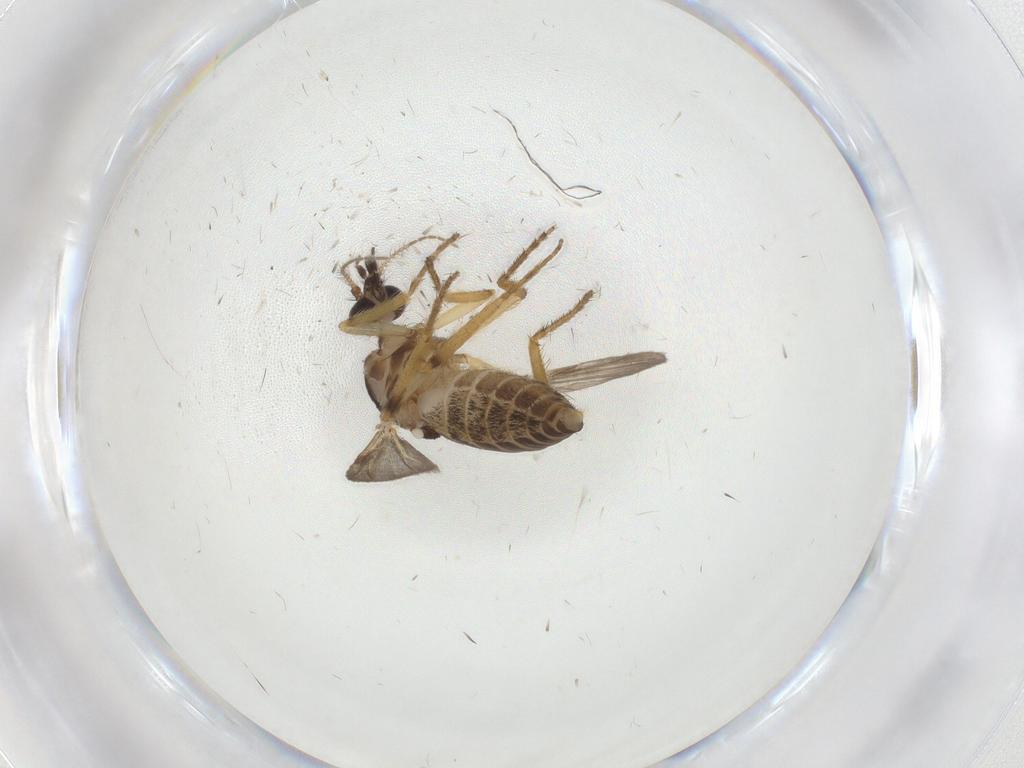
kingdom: Animalia
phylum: Arthropoda
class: Insecta
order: Diptera
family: Ceratopogonidae
